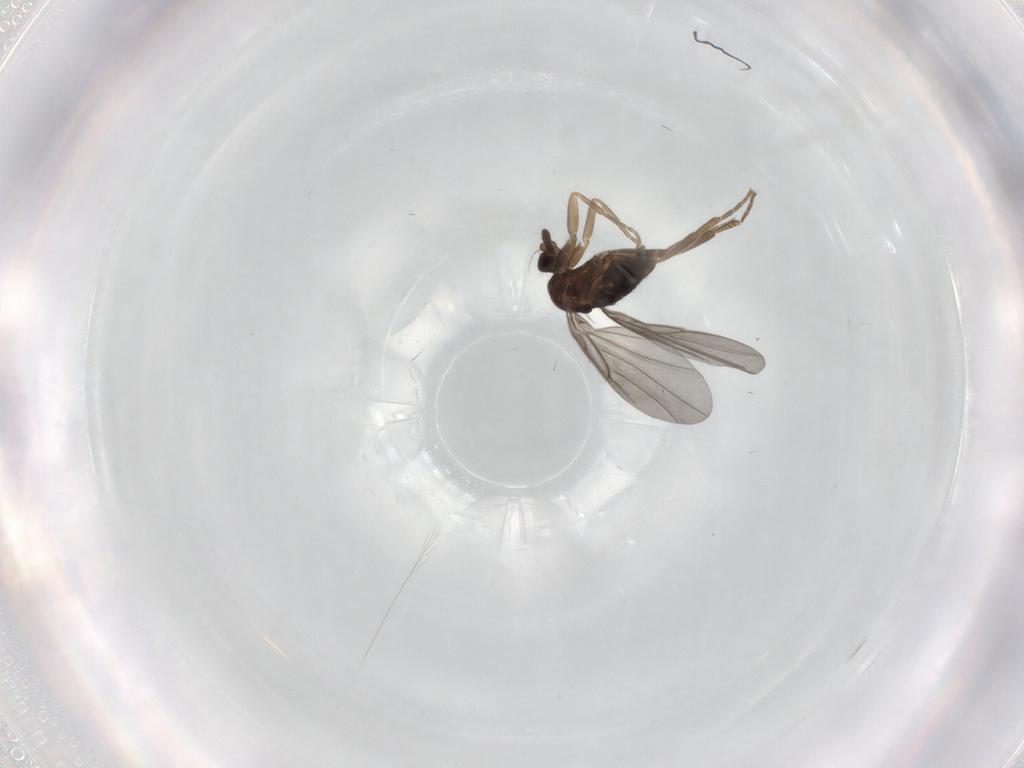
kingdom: Animalia
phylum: Arthropoda
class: Insecta
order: Diptera
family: Phoridae
